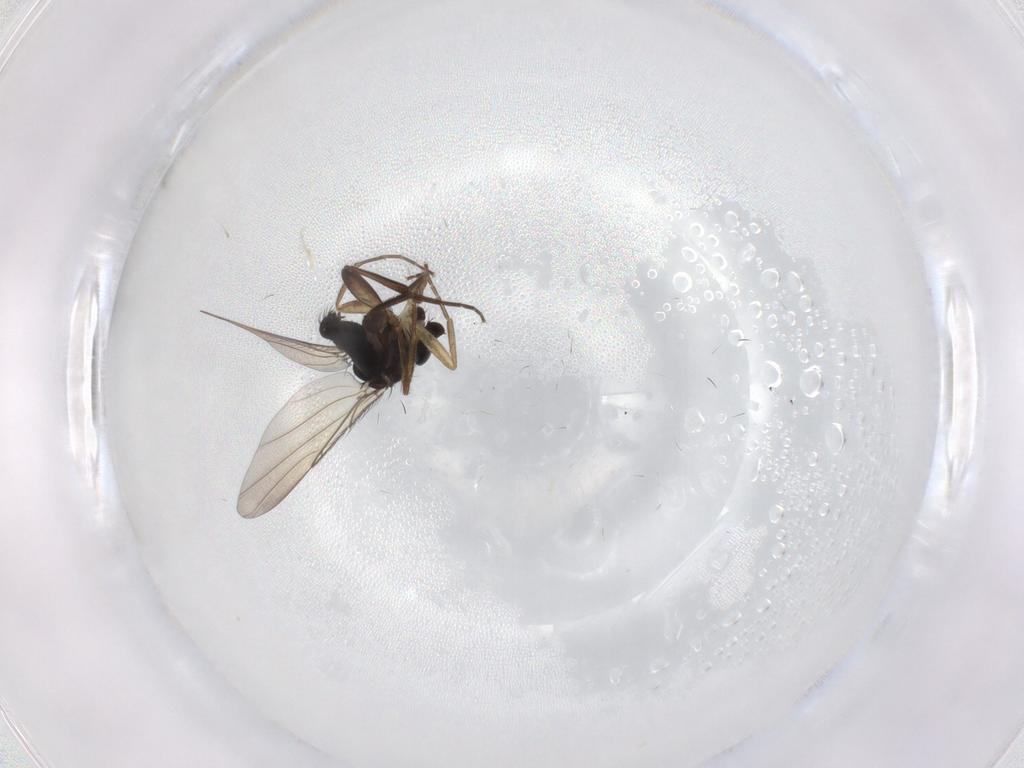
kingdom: Animalia
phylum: Arthropoda
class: Insecta
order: Diptera
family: Phoridae
